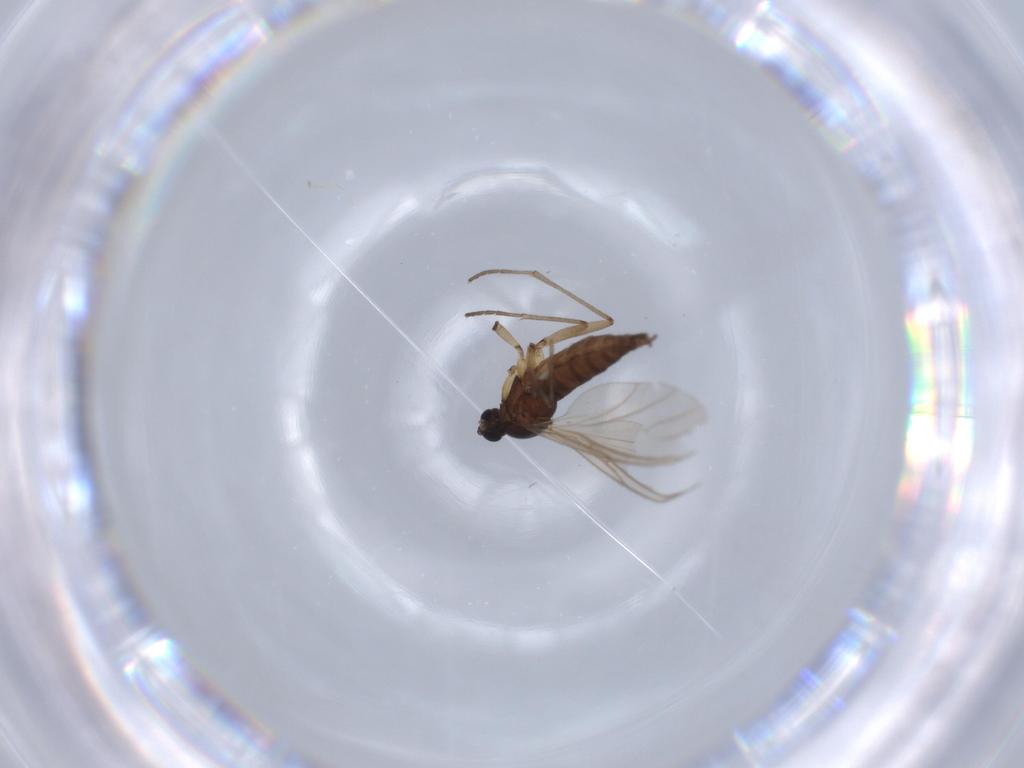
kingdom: Animalia
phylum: Arthropoda
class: Insecta
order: Diptera
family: Sciaridae
